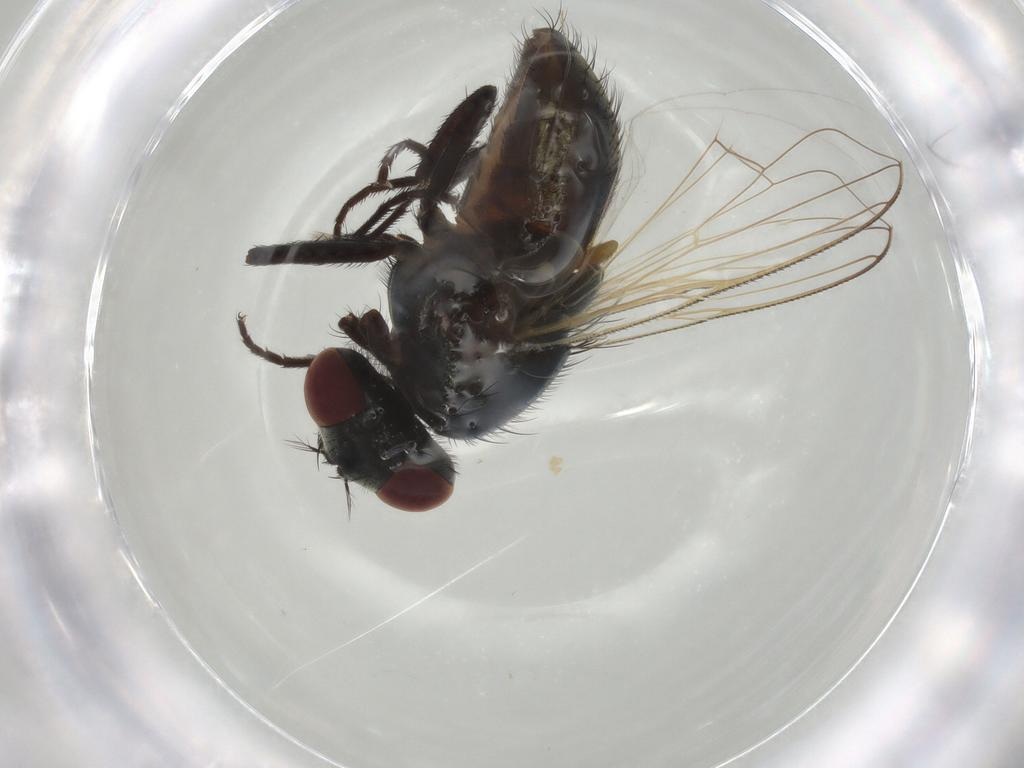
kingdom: Animalia
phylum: Arthropoda
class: Insecta
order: Diptera
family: Muscidae
